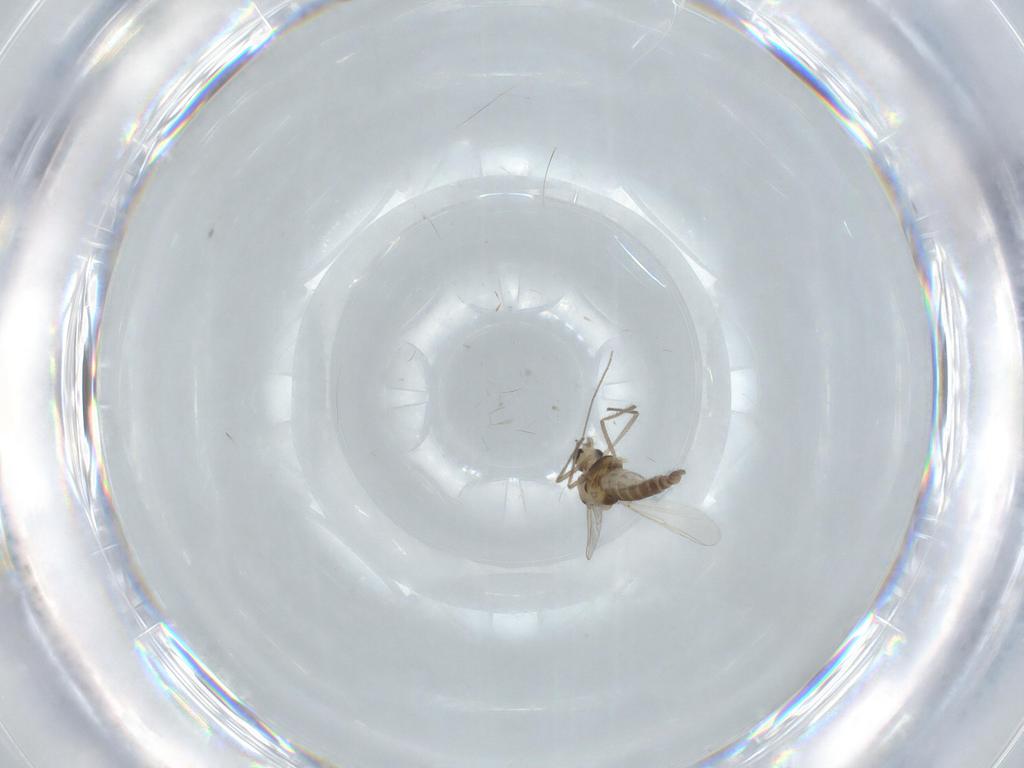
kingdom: Animalia
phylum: Arthropoda
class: Insecta
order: Diptera
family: Chironomidae
